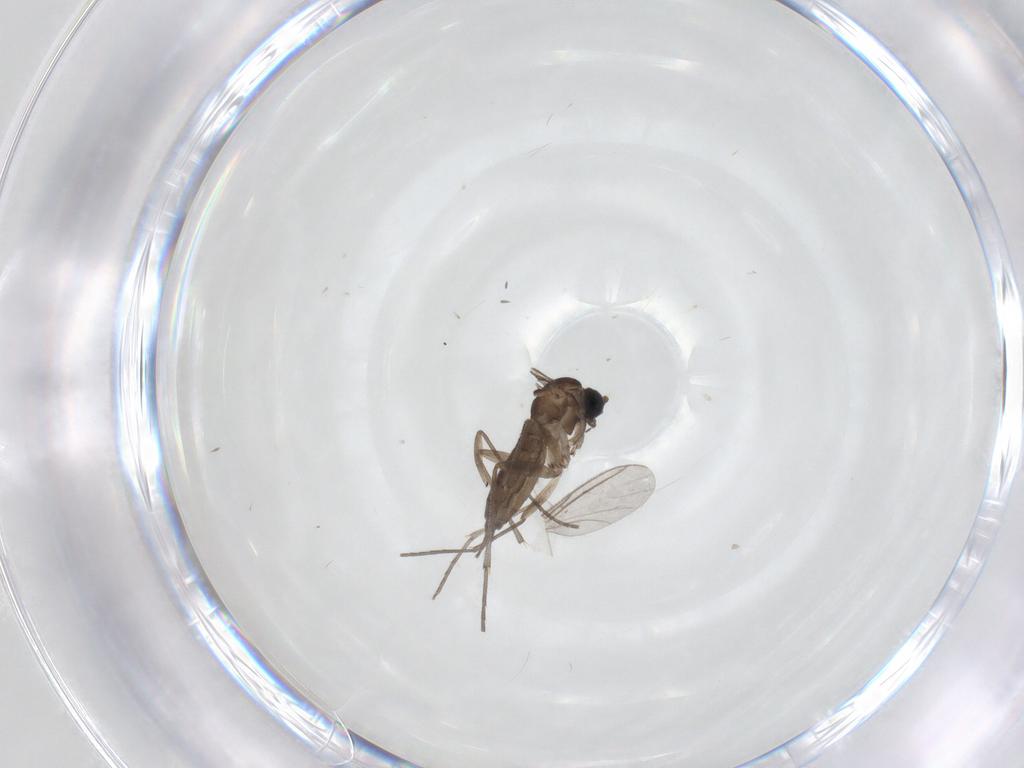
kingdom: Animalia
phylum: Arthropoda
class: Insecta
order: Diptera
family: Sciaridae
